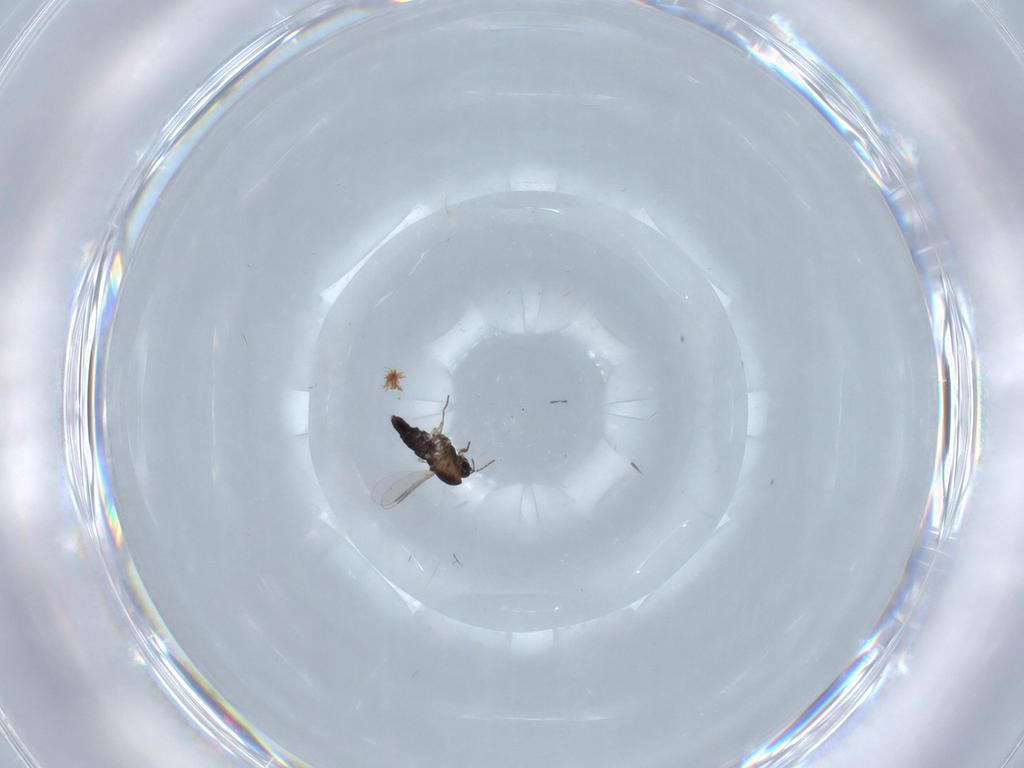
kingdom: Animalia
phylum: Arthropoda
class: Insecta
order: Diptera
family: Chironomidae
